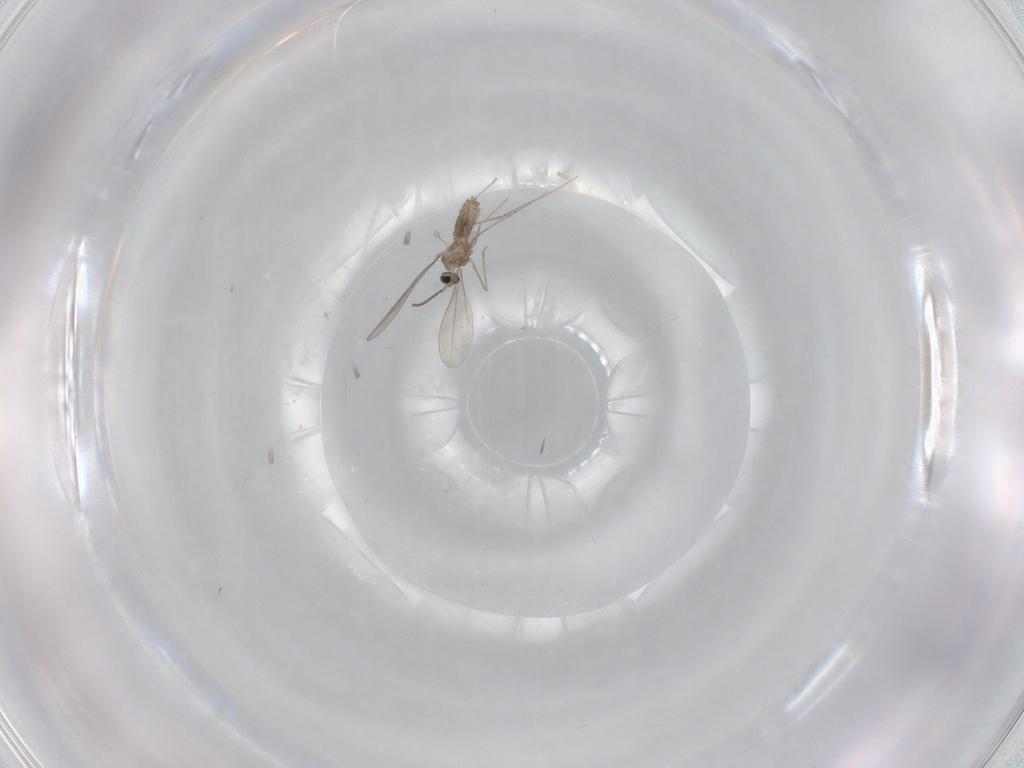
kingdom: Animalia
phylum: Arthropoda
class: Insecta
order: Diptera
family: Cecidomyiidae
